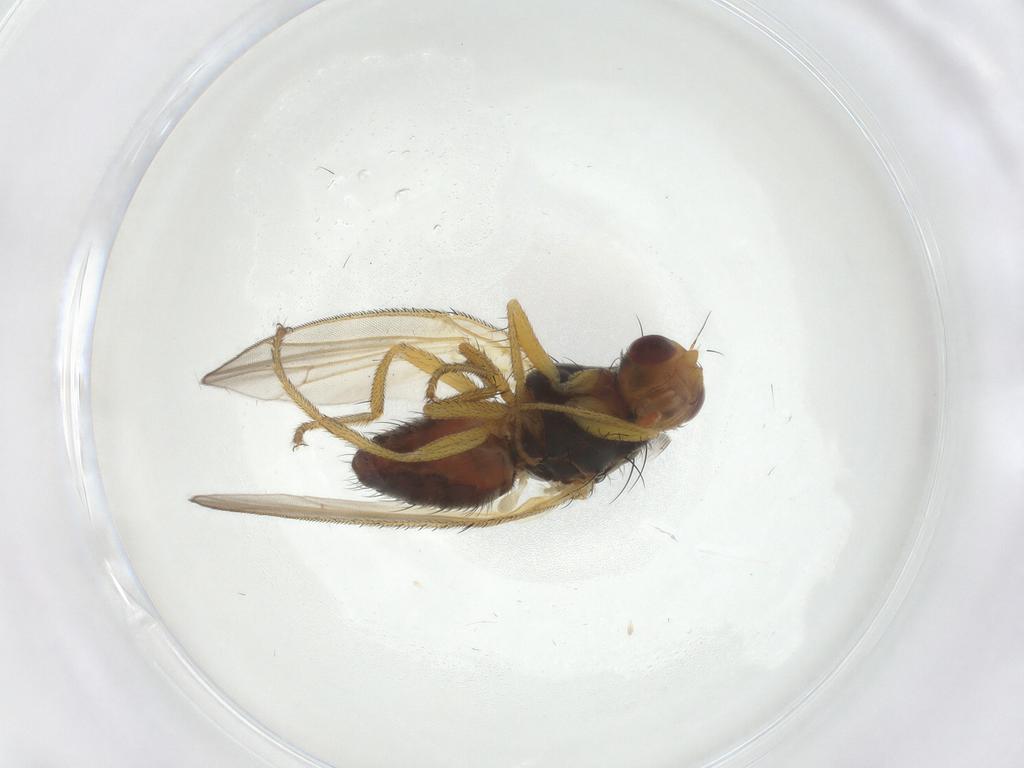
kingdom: Animalia
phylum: Arthropoda
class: Insecta
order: Diptera
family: Heleomyzidae
